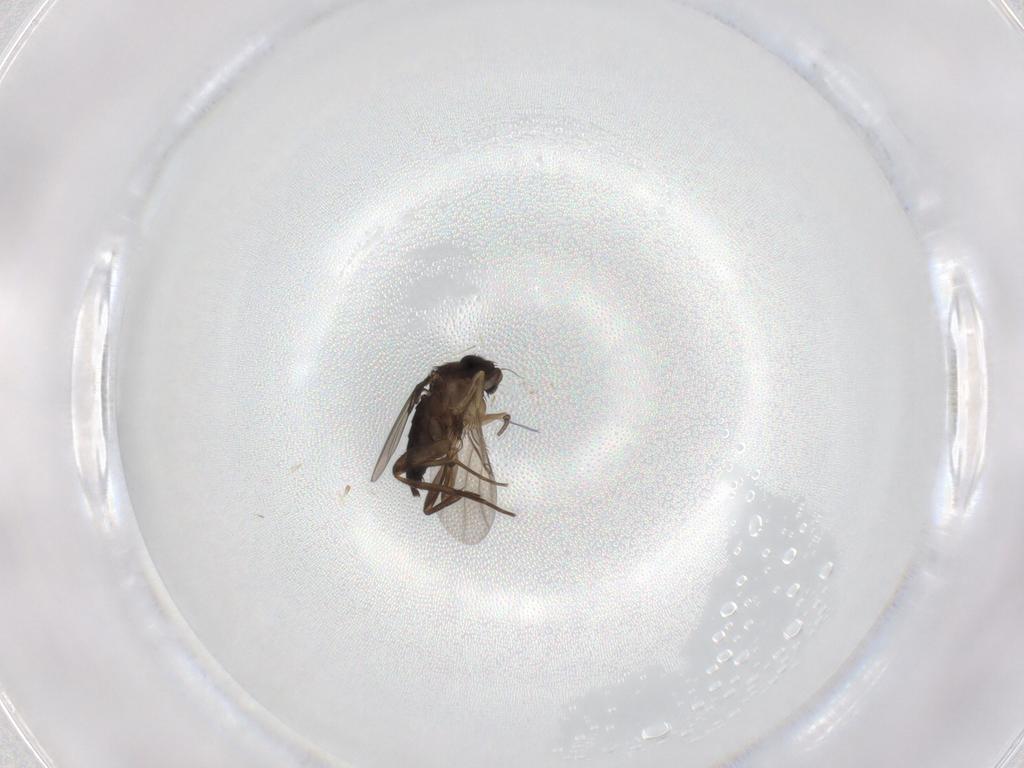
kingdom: Animalia
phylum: Arthropoda
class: Insecta
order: Diptera
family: Phoridae
